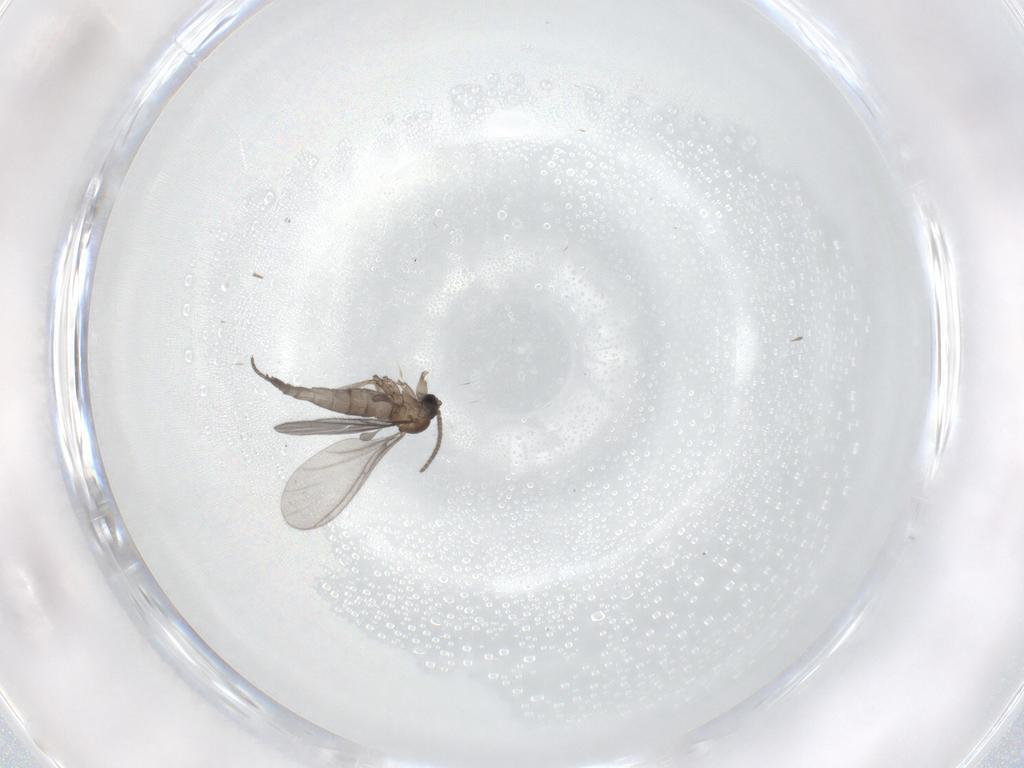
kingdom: Animalia
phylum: Arthropoda
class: Insecta
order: Diptera
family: Sciaridae
